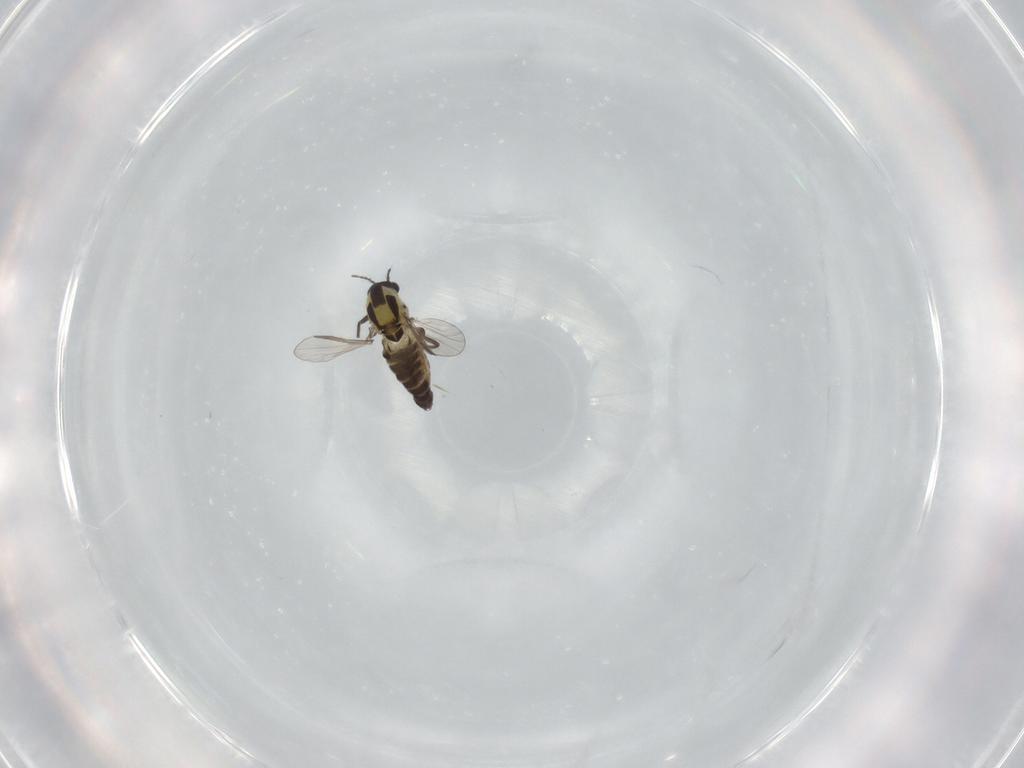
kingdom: Animalia
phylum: Arthropoda
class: Insecta
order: Diptera
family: Chironomidae
